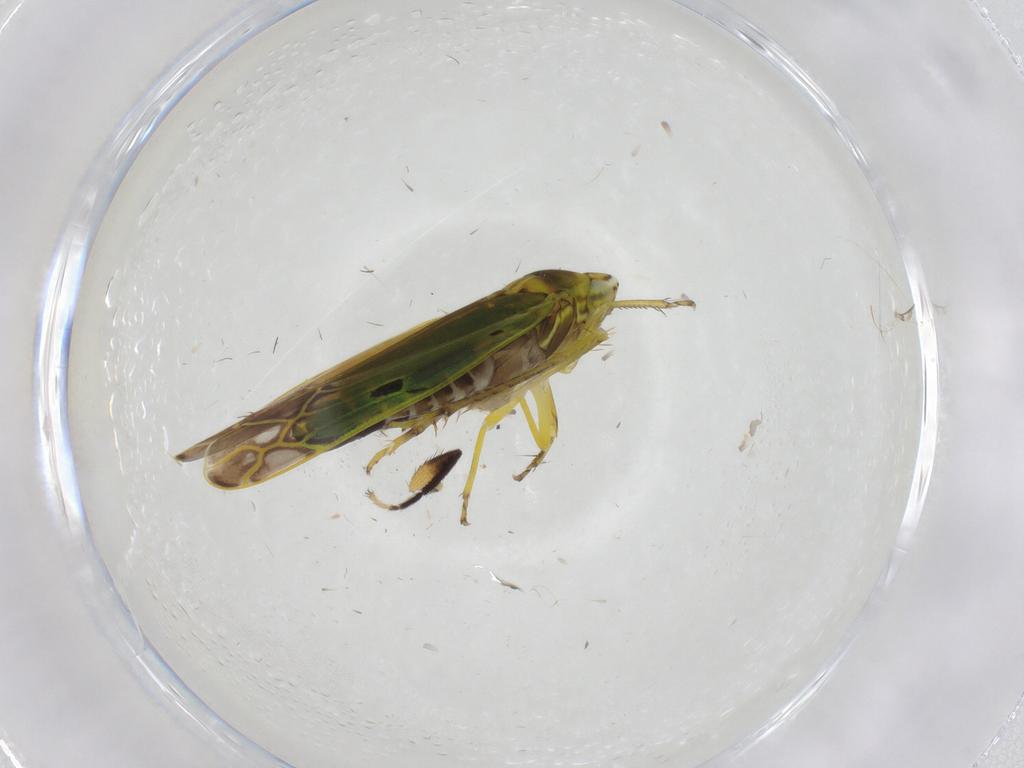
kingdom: Animalia
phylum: Arthropoda
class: Insecta
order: Hemiptera
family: Cicadellidae
